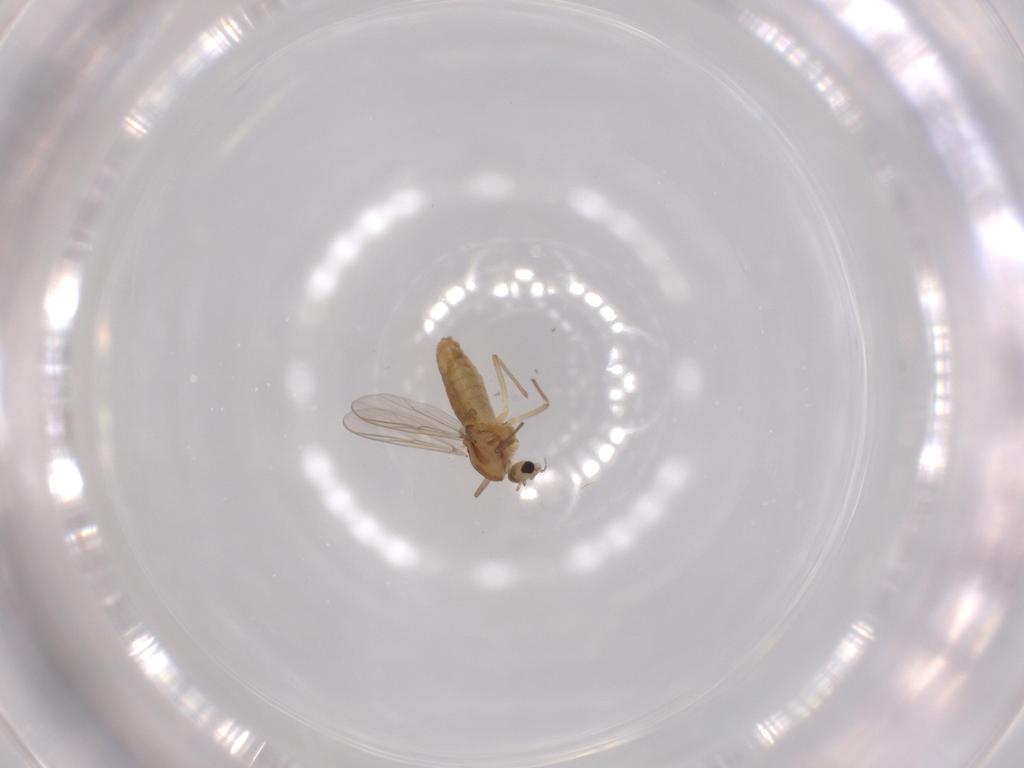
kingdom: Animalia
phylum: Arthropoda
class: Insecta
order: Diptera
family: Chironomidae
